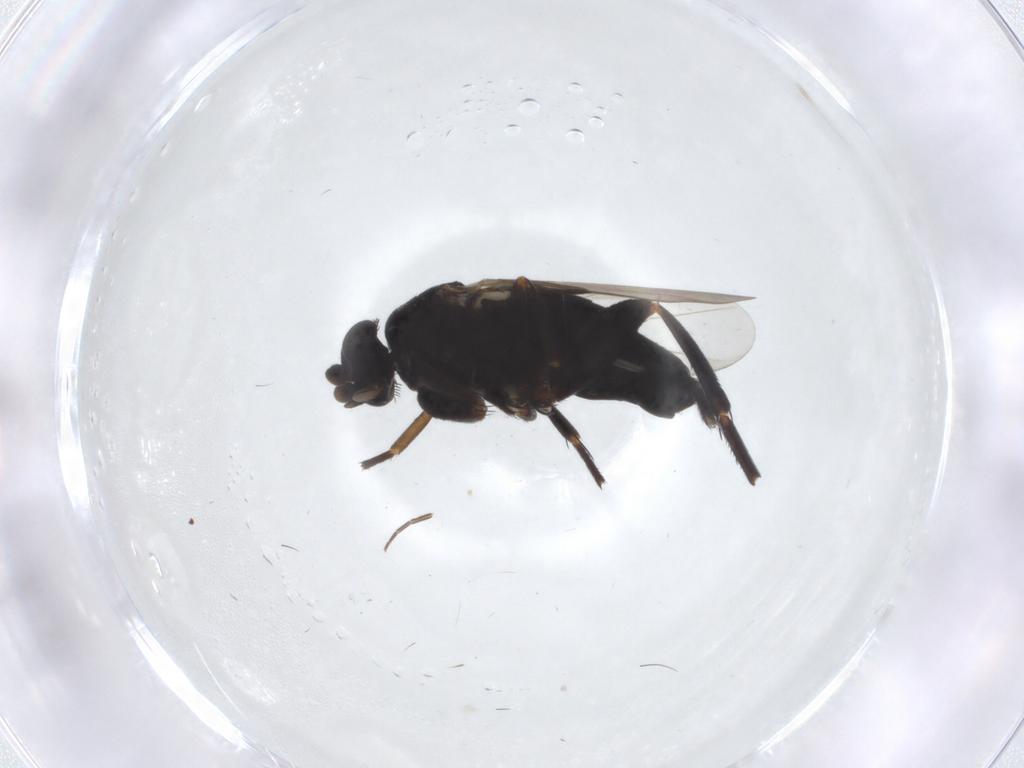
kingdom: Animalia
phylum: Arthropoda
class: Insecta
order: Diptera
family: Phoridae
